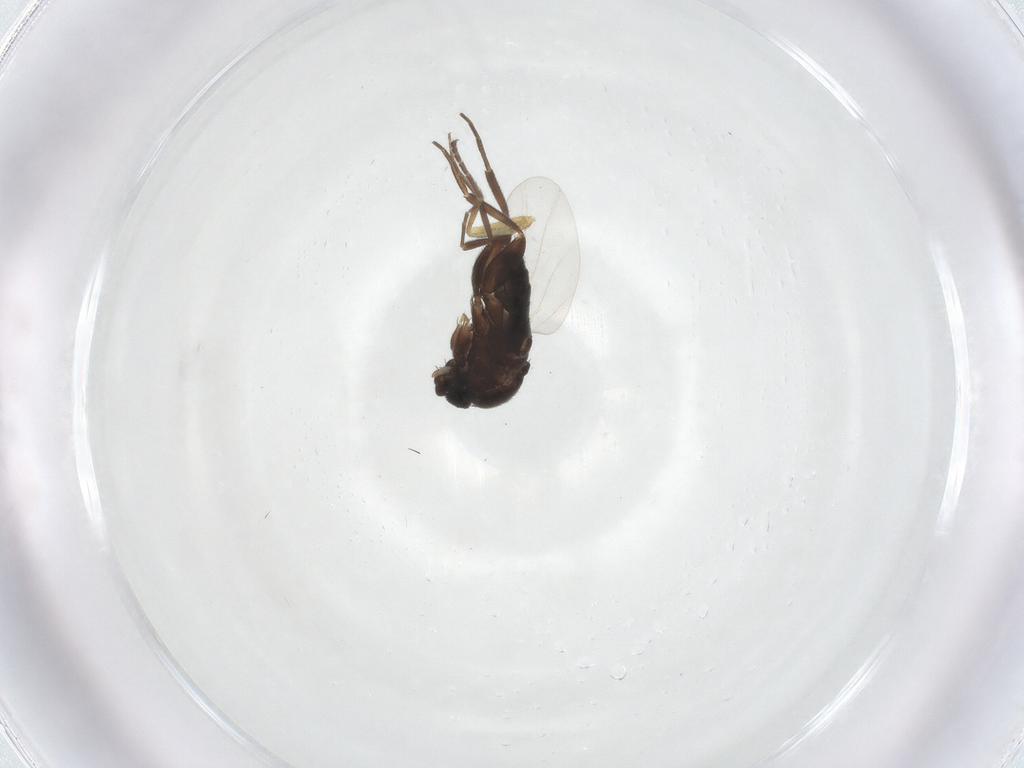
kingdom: Animalia
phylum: Arthropoda
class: Insecta
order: Diptera
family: Phoridae
